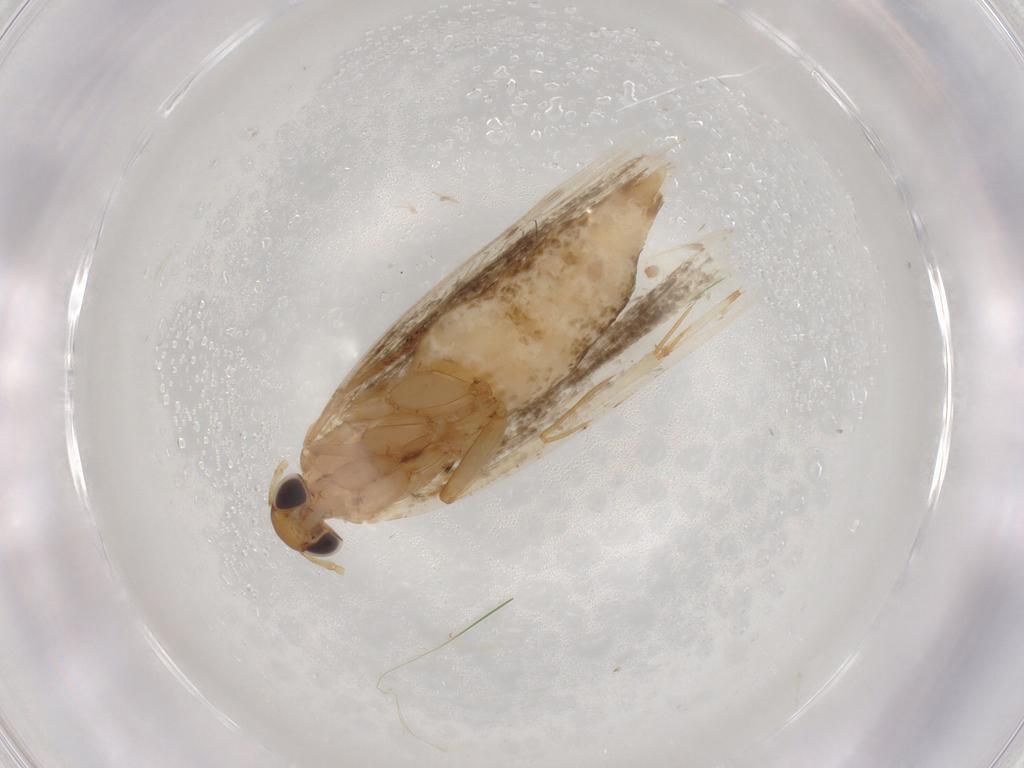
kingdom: Animalia
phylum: Arthropoda
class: Insecta
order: Lepidoptera
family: Gelechiidae
